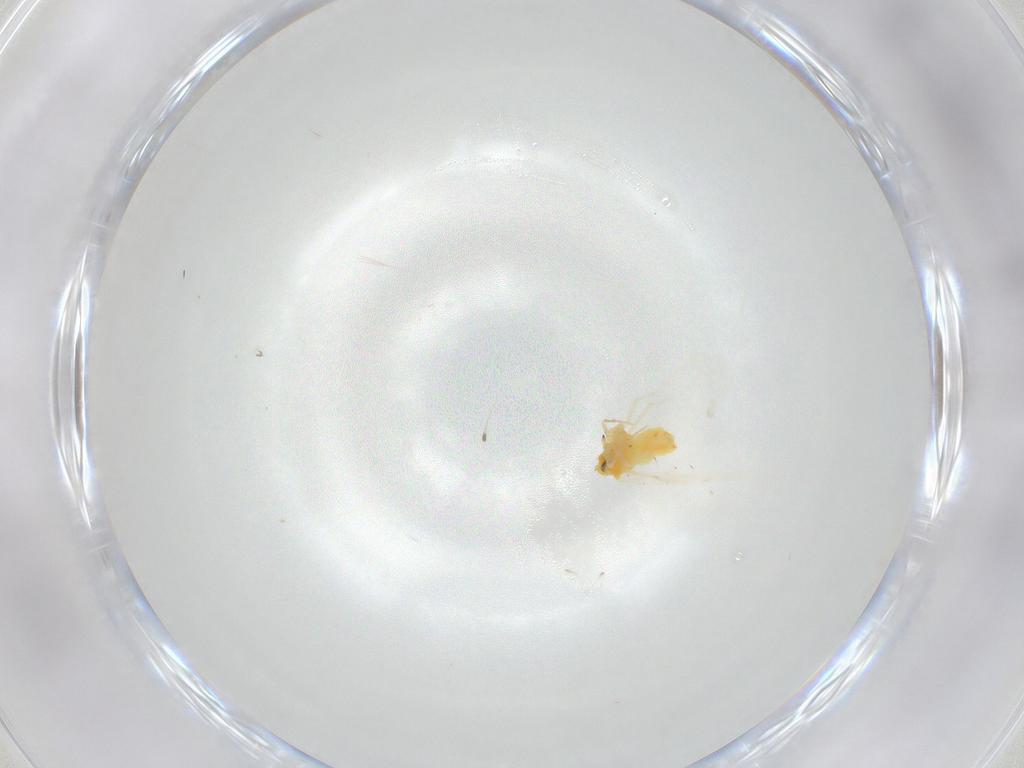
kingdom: Animalia
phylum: Arthropoda
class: Insecta
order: Hemiptera
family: Aleyrodidae
